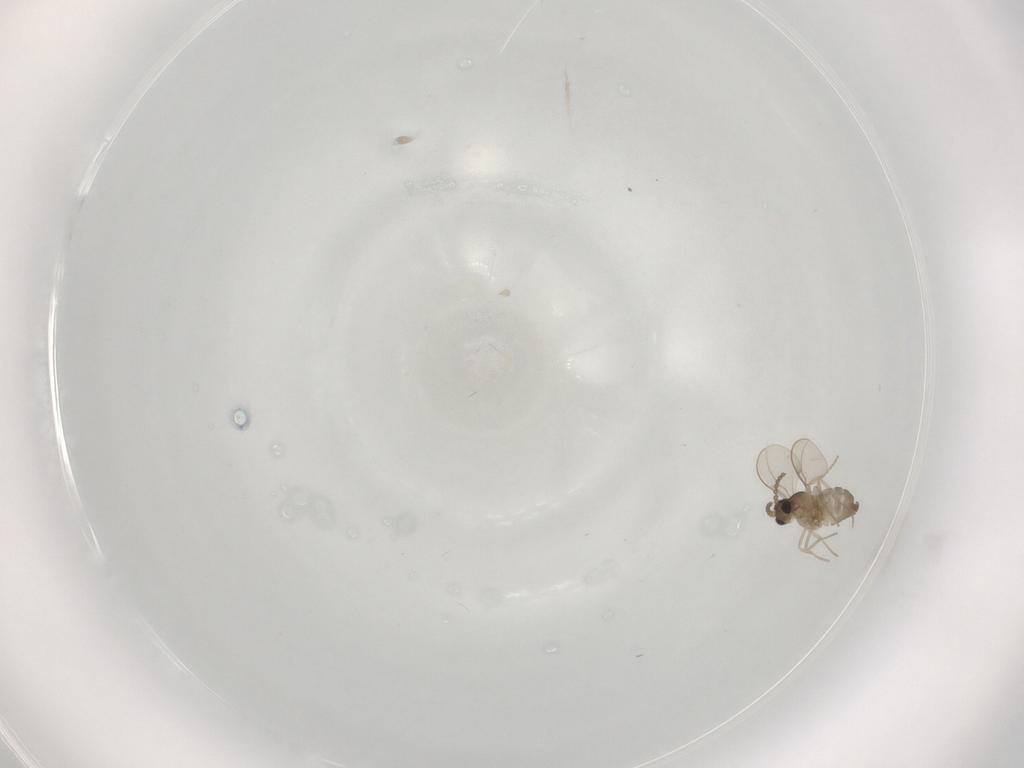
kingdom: Animalia
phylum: Arthropoda
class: Insecta
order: Diptera
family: Cecidomyiidae
